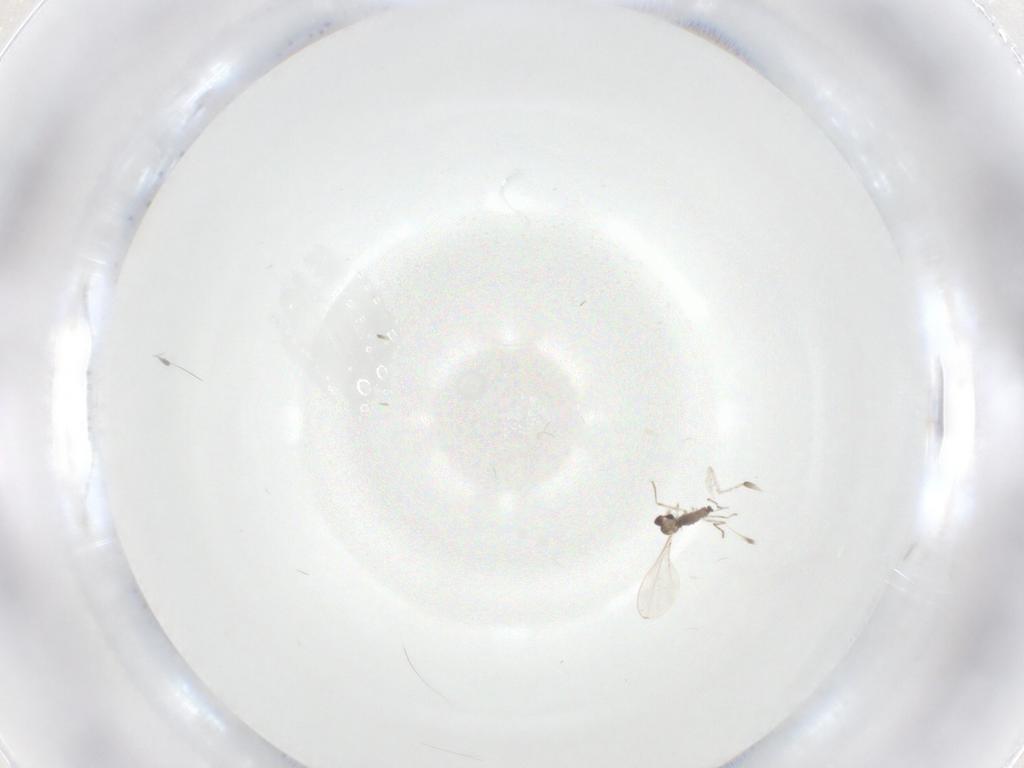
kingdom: Animalia
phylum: Arthropoda
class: Insecta
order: Diptera
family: Cecidomyiidae
